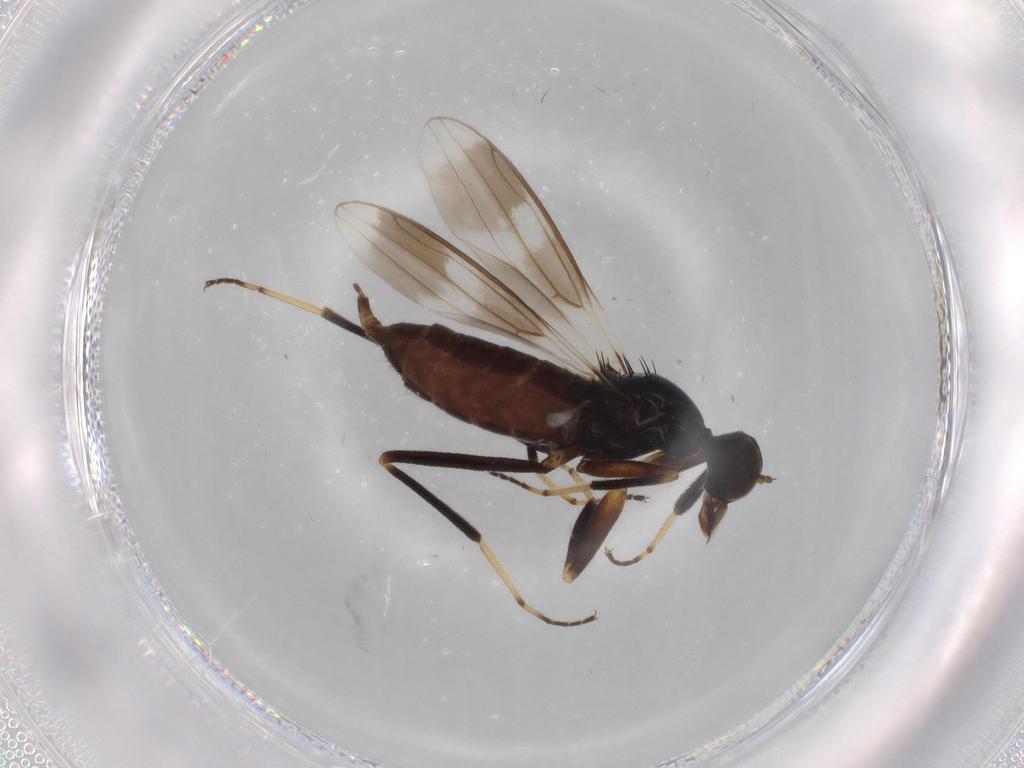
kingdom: Animalia
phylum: Arthropoda
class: Insecta
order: Diptera
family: Hybotidae
